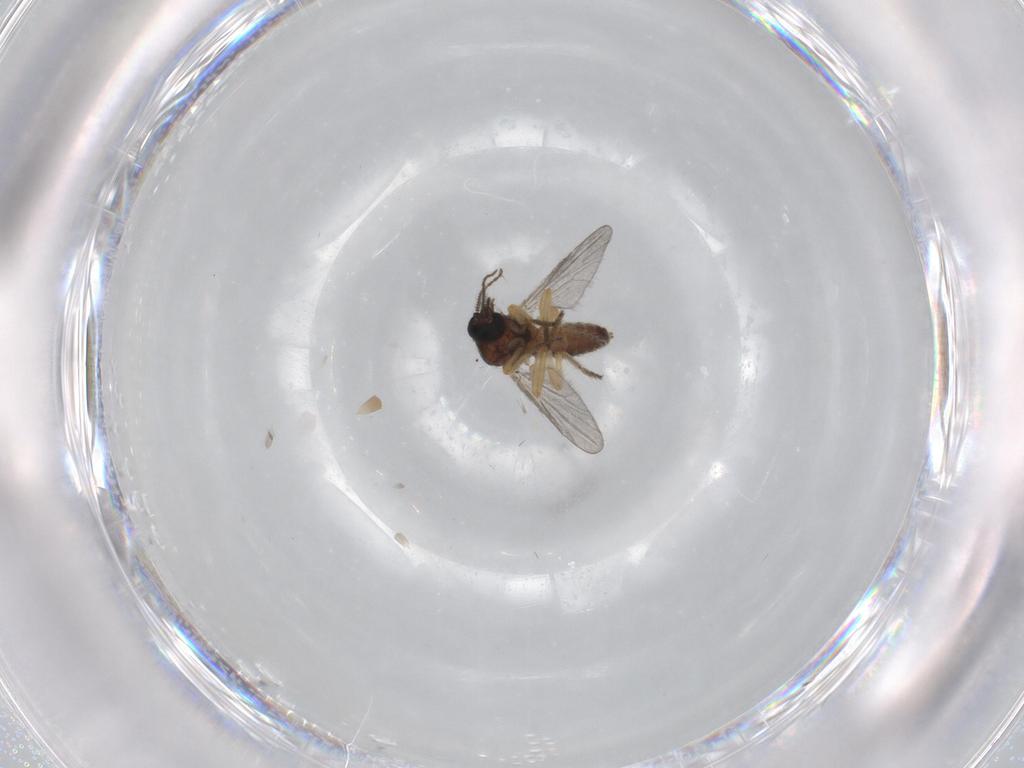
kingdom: Animalia
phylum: Arthropoda
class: Insecta
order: Diptera
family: Ceratopogonidae
